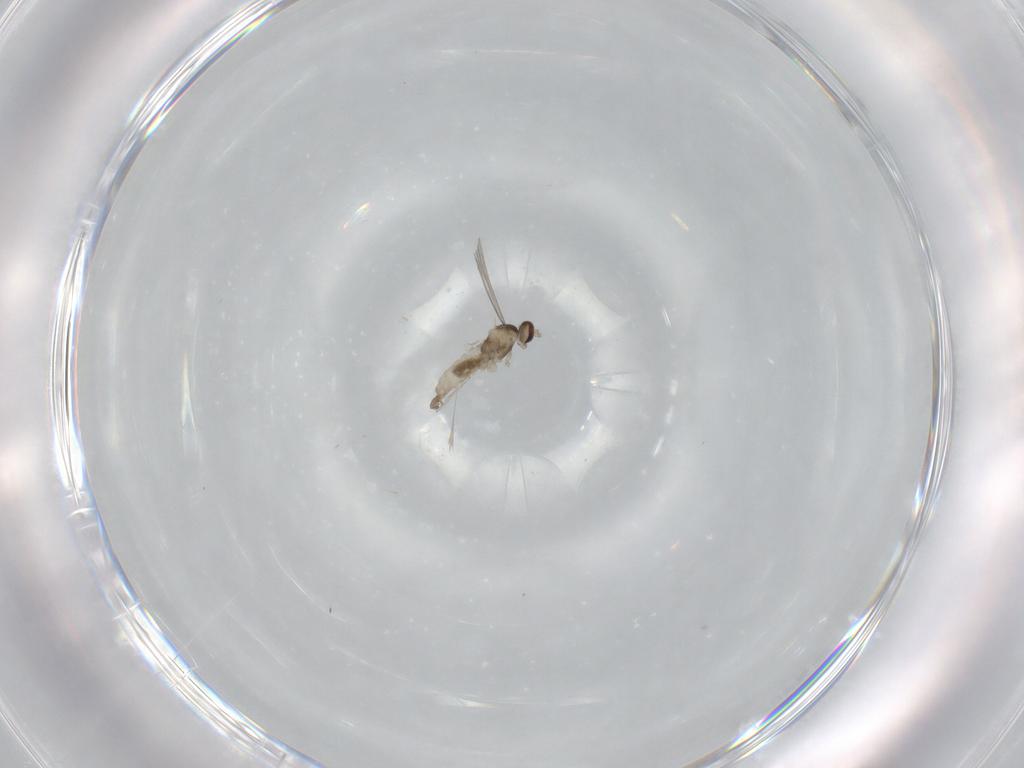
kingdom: Animalia
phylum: Arthropoda
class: Insecta
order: Diptera
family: Cecidomyiidae
